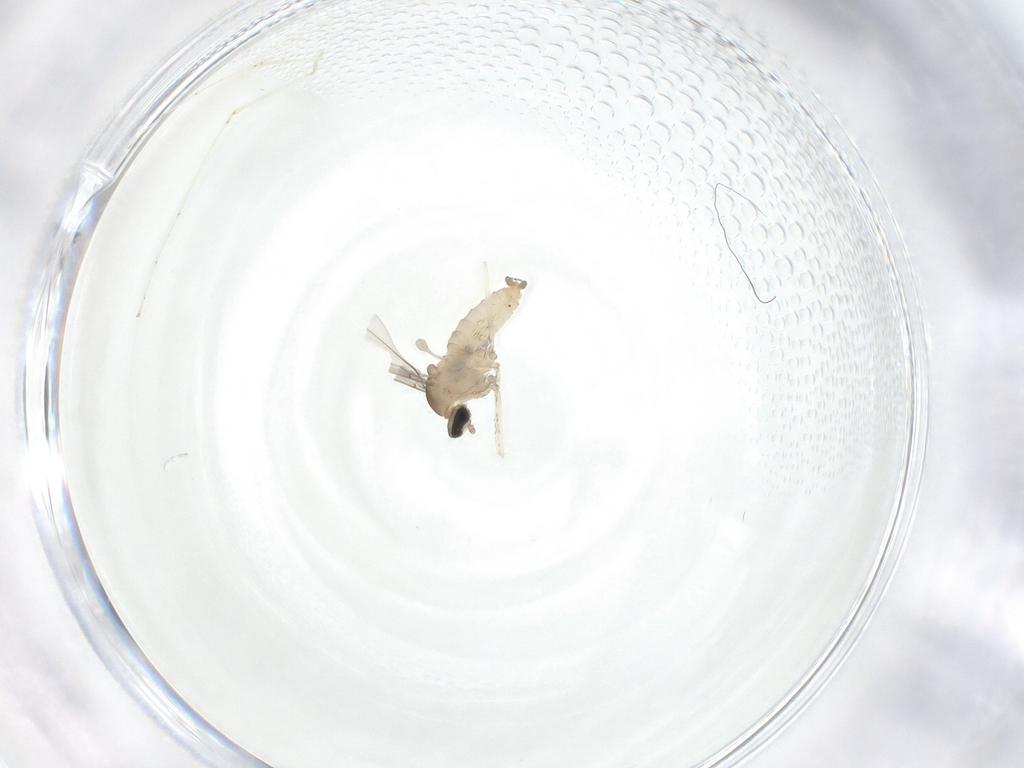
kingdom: Animalia
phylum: Arthropoda
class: Insecta
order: Diptera
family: Cecidomyiidae
